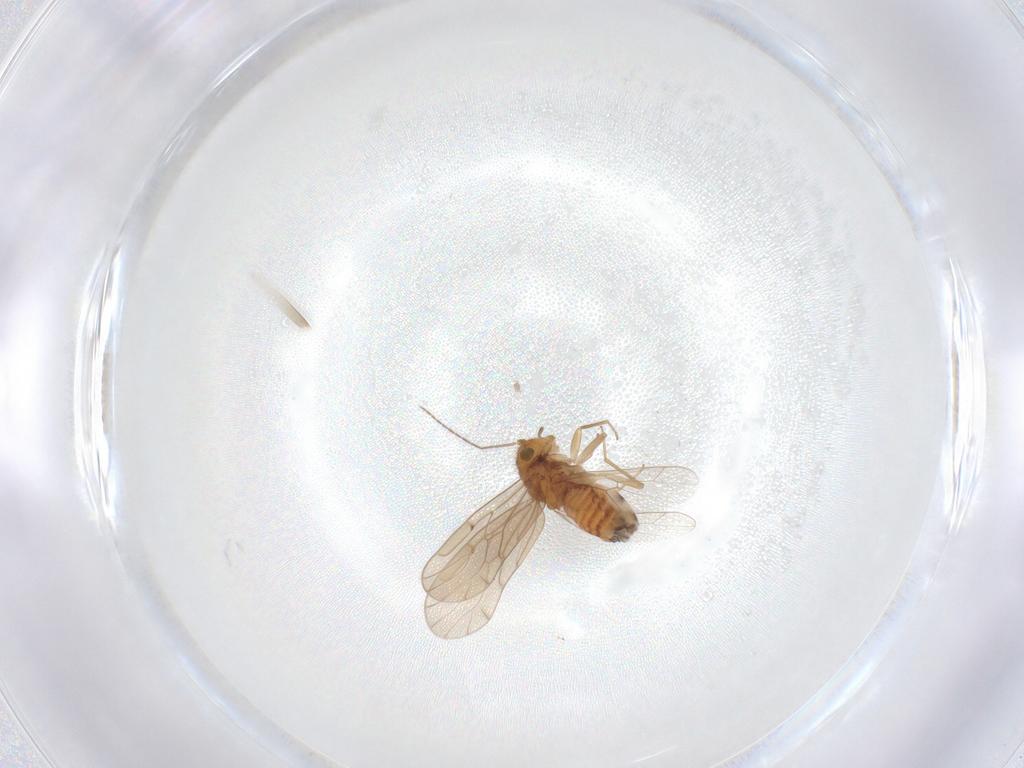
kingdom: Animalia
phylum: Arthropoda
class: Insecta
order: Psocodea
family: Ectopsocidae
